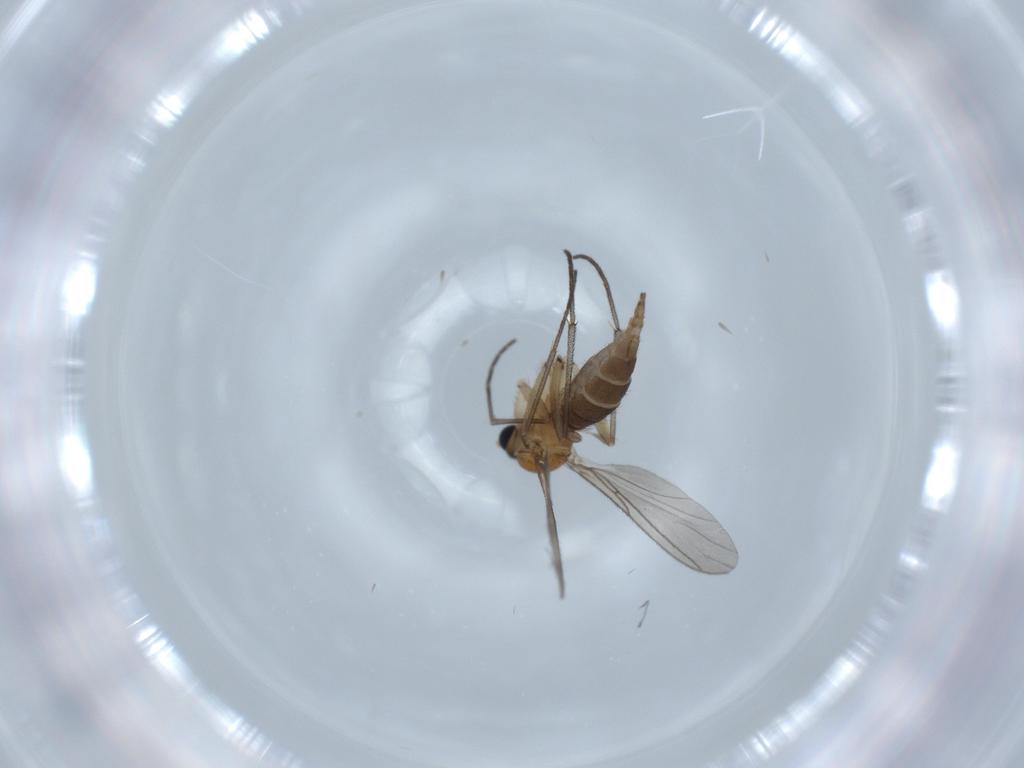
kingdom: Animalia
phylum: Arthropoda
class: Insecta
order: Diptera
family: Sciaridae
